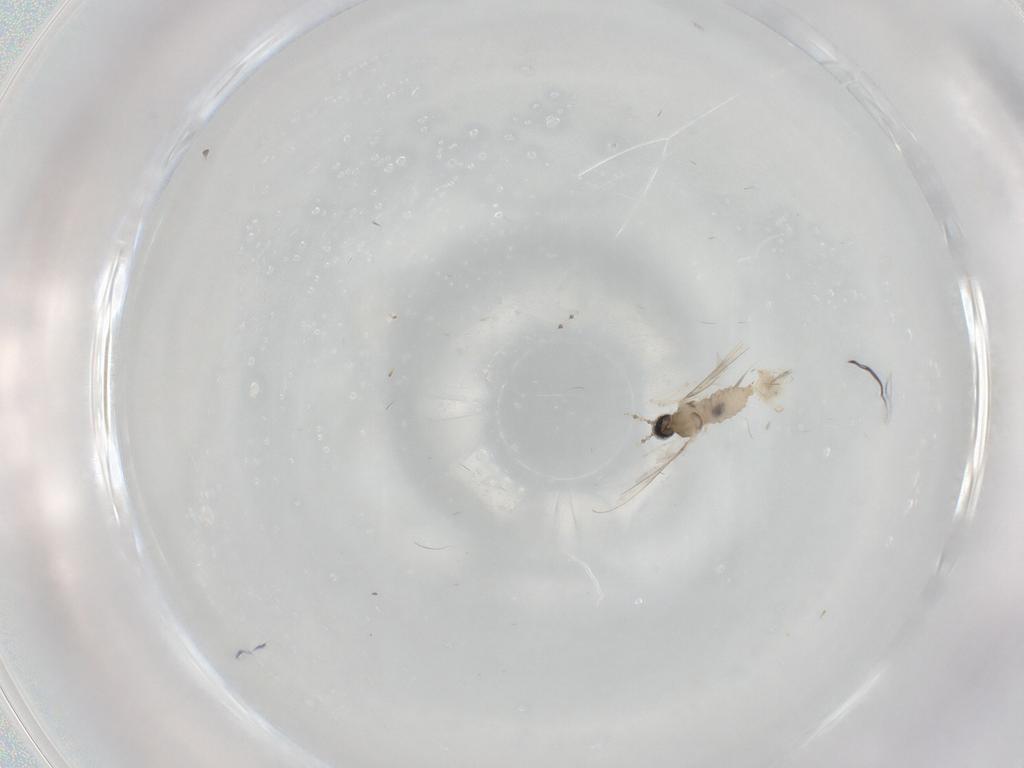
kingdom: Animalia
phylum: Arthropoda
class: Insecta
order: Diptera
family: Cecidomyiidae
